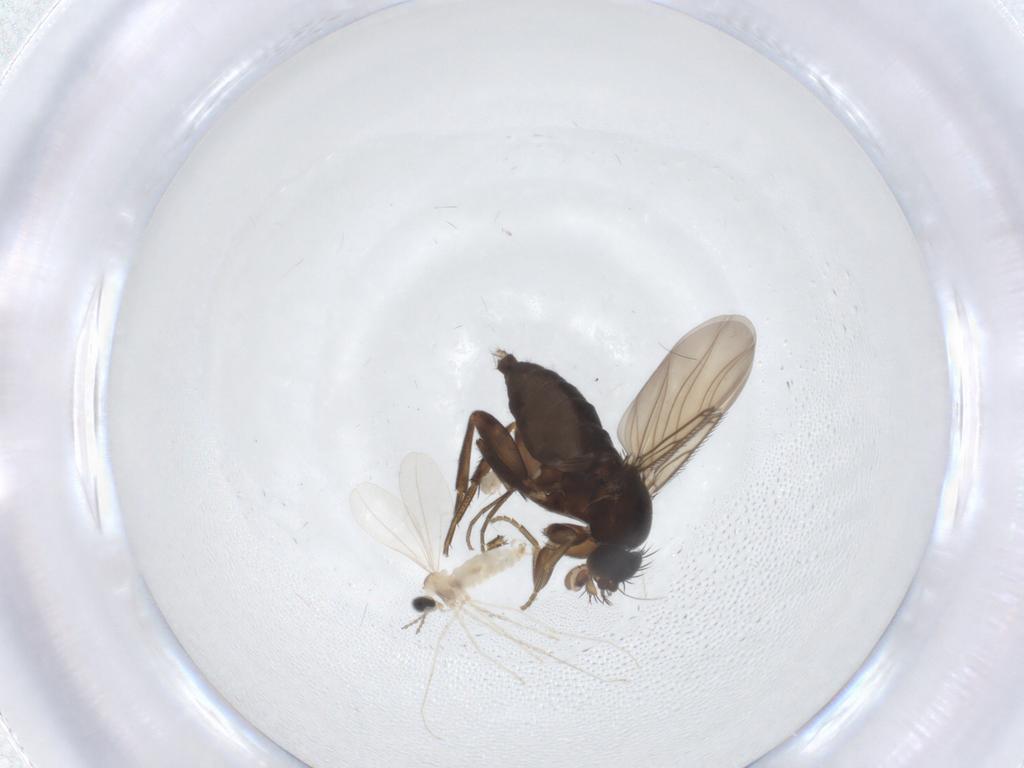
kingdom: Animalia
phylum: Arthropoda
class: Insecta
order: Diptera
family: Phoridae
